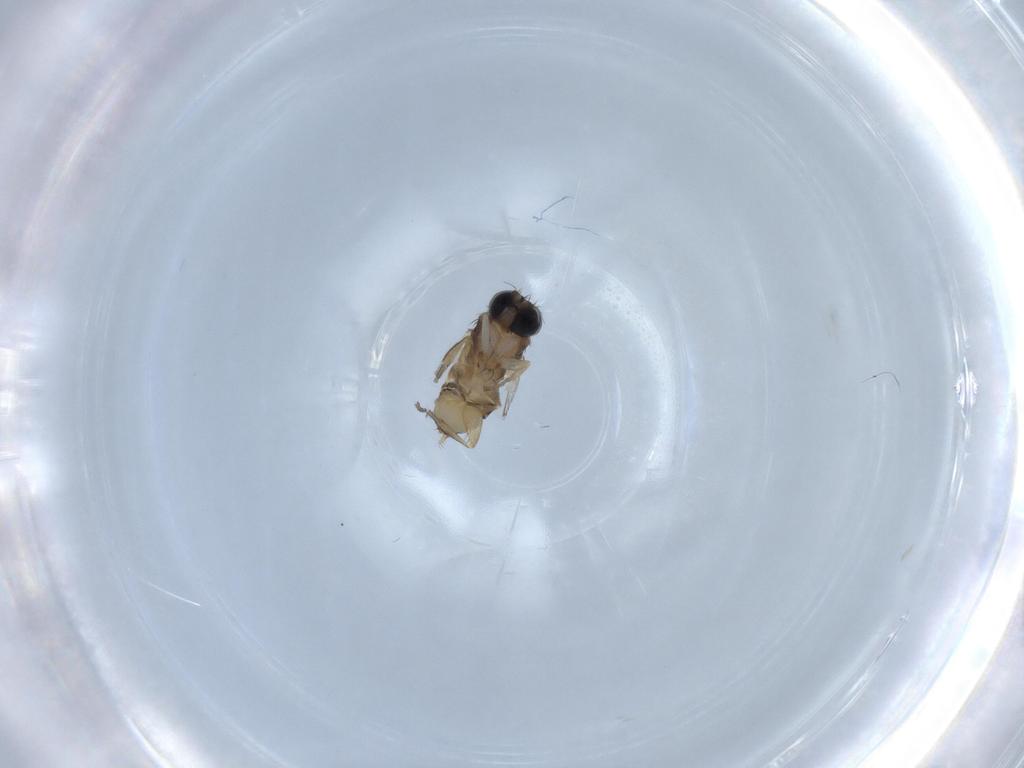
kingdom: Animalia
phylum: Arthropoda
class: Insecta
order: Diptera
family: Phoridae
